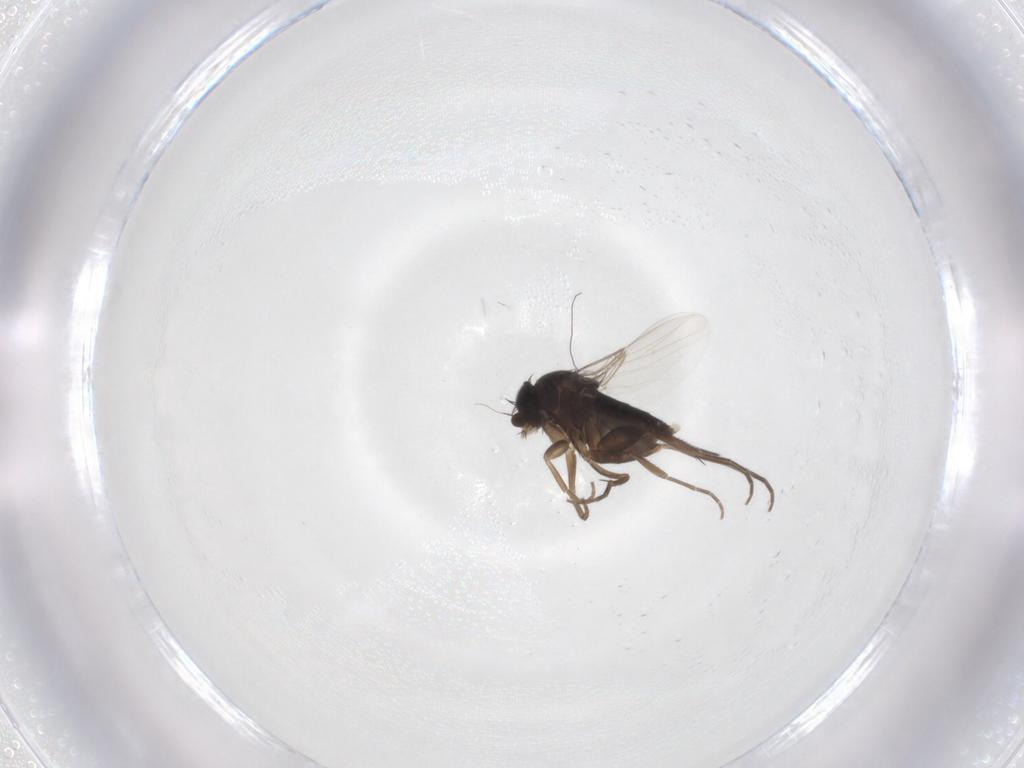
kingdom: Animalia
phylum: Arthropoda
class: Insecta
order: Diptera
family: Phoridae
